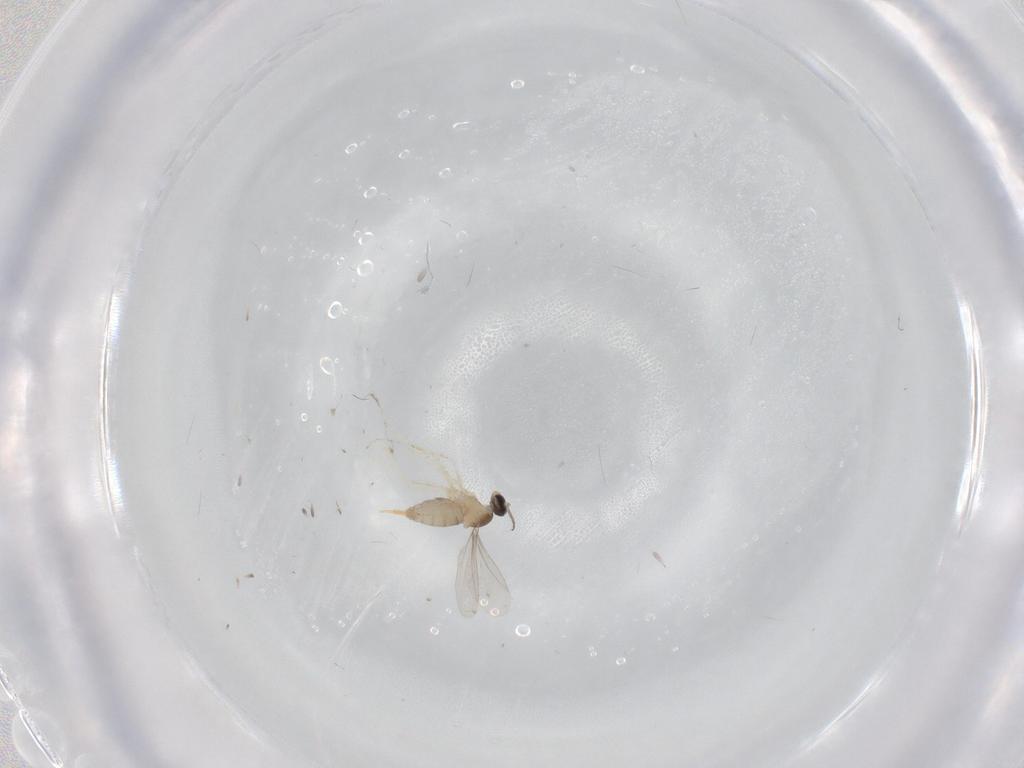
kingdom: Animalia
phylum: Arthropoda
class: Insecta
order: Diptera
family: Cecidomyiidae
